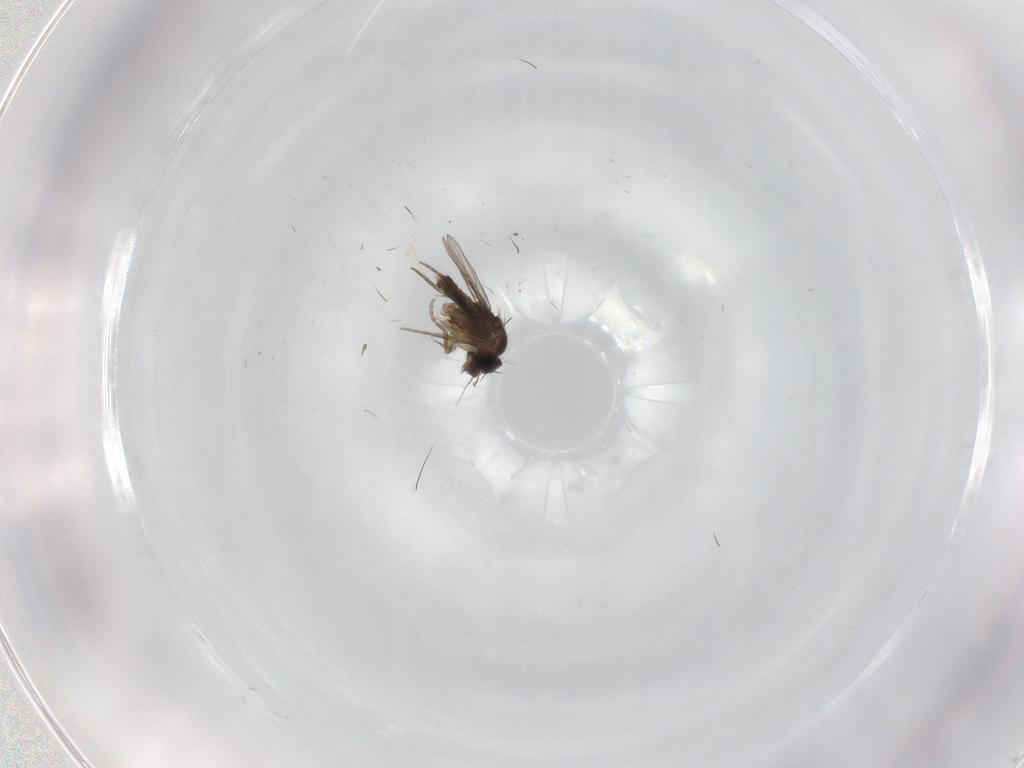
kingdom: Animalia
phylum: Arthropoda
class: Insecta
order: Diptera
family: Phoridae
